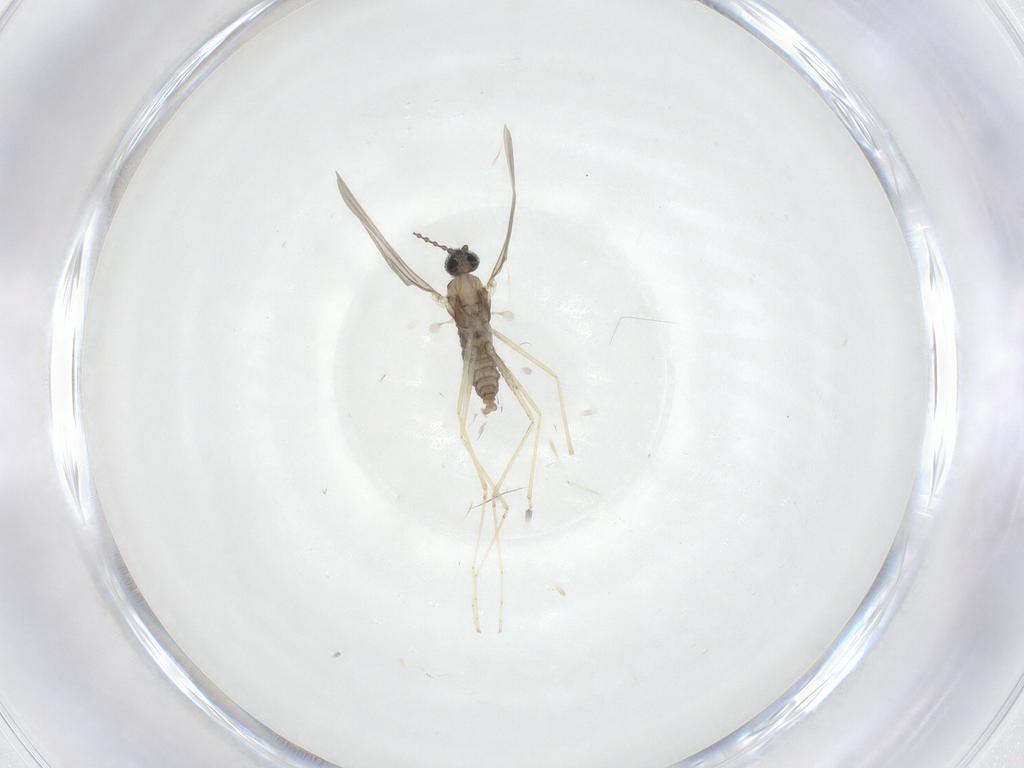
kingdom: Animalia
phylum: Arthropoda
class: Insecta
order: Diptera
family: Cecidomyiidae
